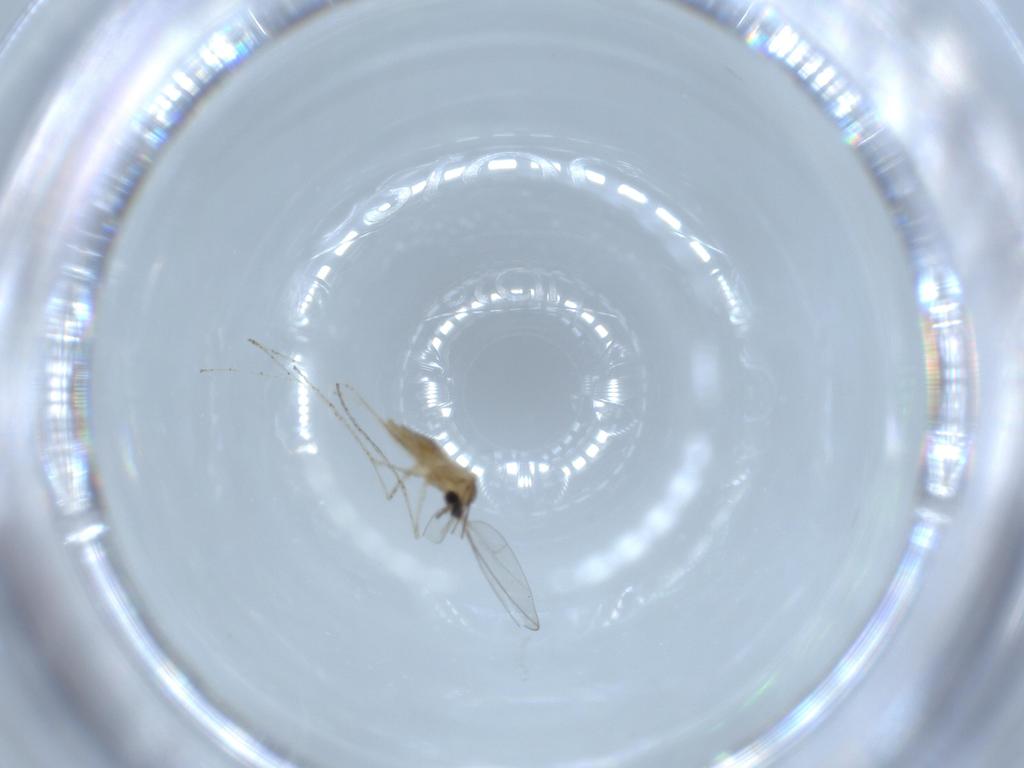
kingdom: Animalia
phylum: Arthropoda
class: Insecta
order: Diptera
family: Cecidomyiidae
